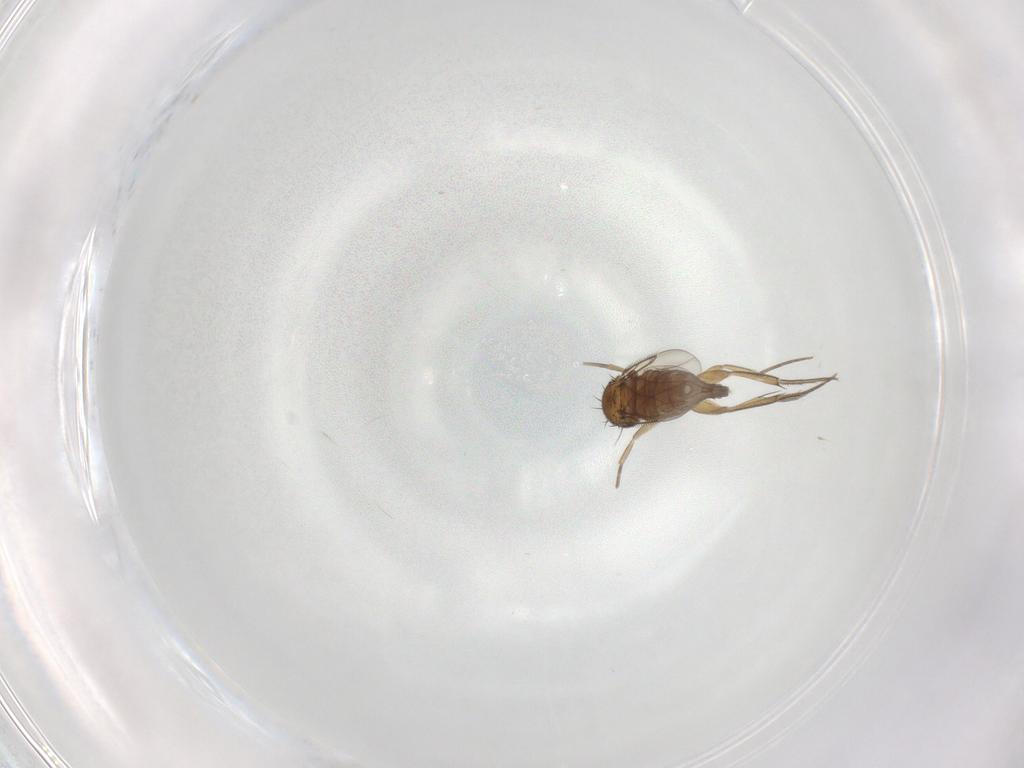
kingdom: Animalia
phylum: Arthropoda
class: Insecta
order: Diptera
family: Phoridae
